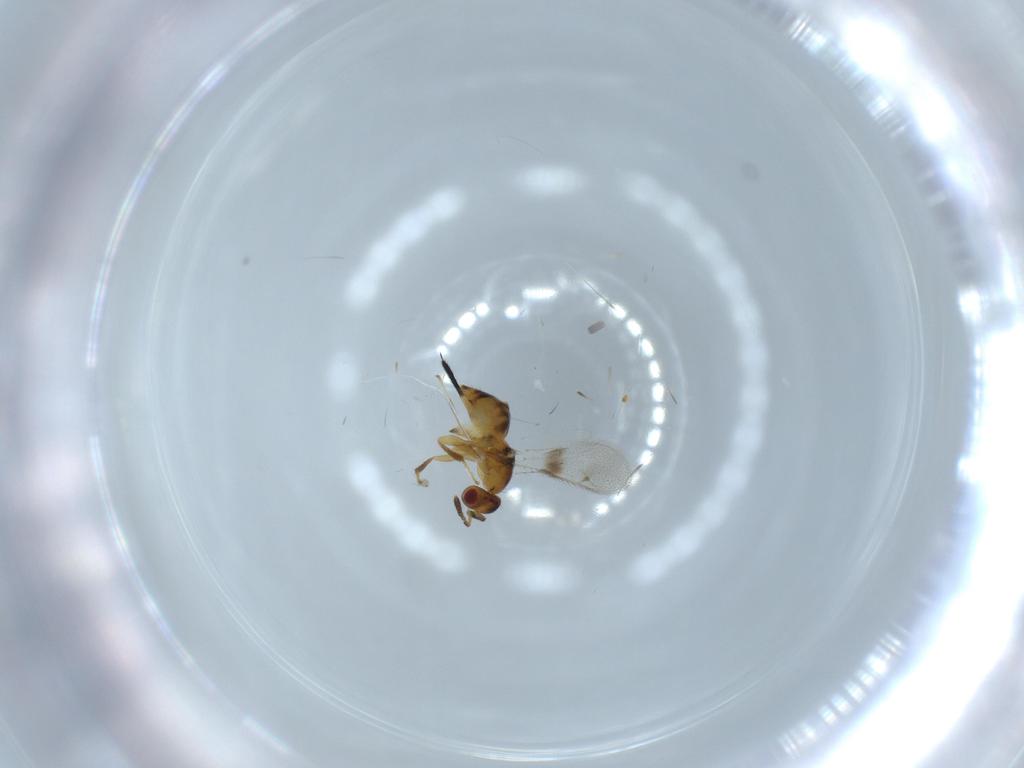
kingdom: Animalia
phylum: Arthropoda
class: Insecta
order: Hymenoptera
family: Torymidae
